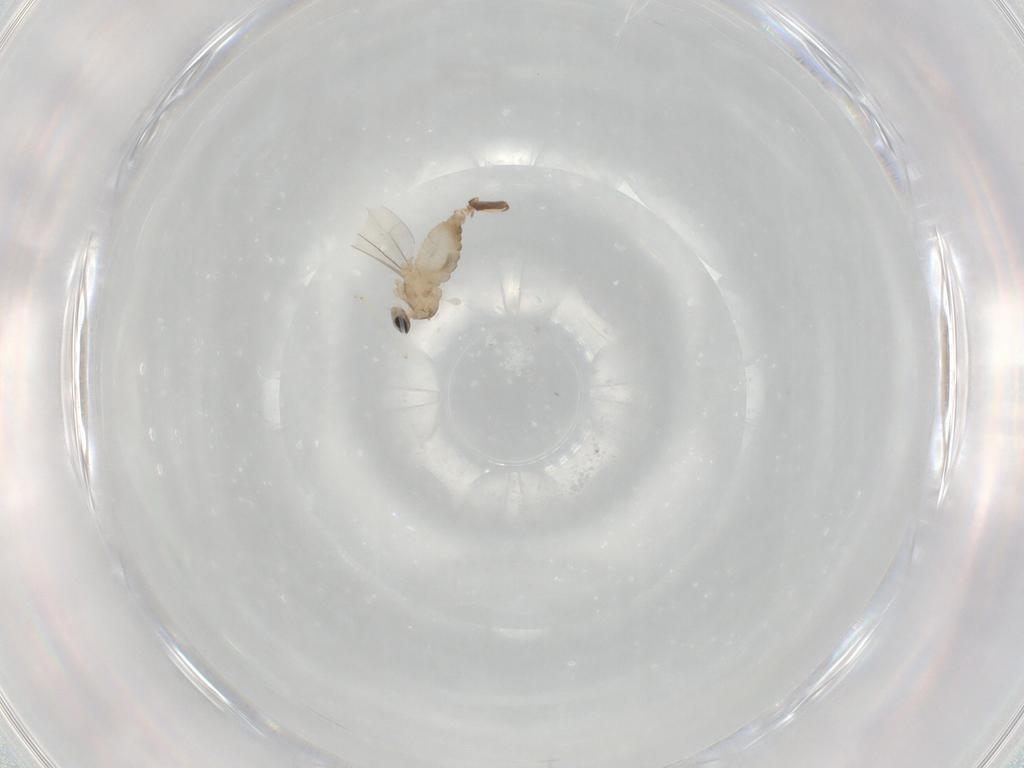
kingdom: Animalia
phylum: Arthropoda
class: Insecta
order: Diptera
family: Cecidomyiidae
